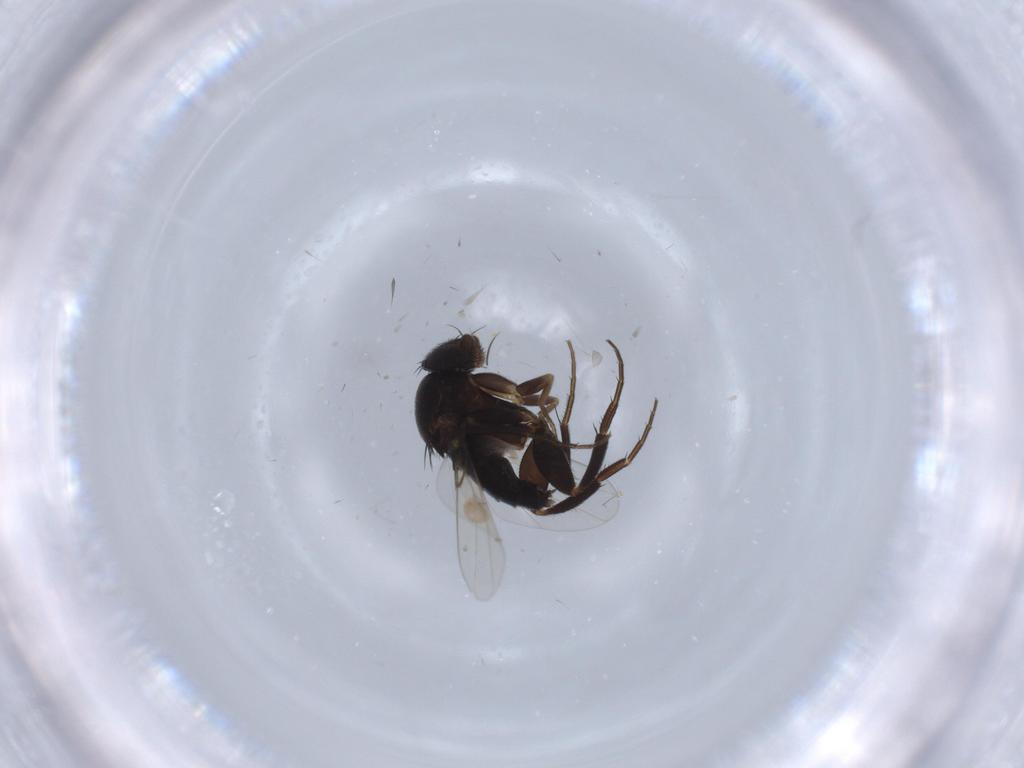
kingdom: Animalia
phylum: Arthropoda
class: Insecta
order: Diptera
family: Phoridae
